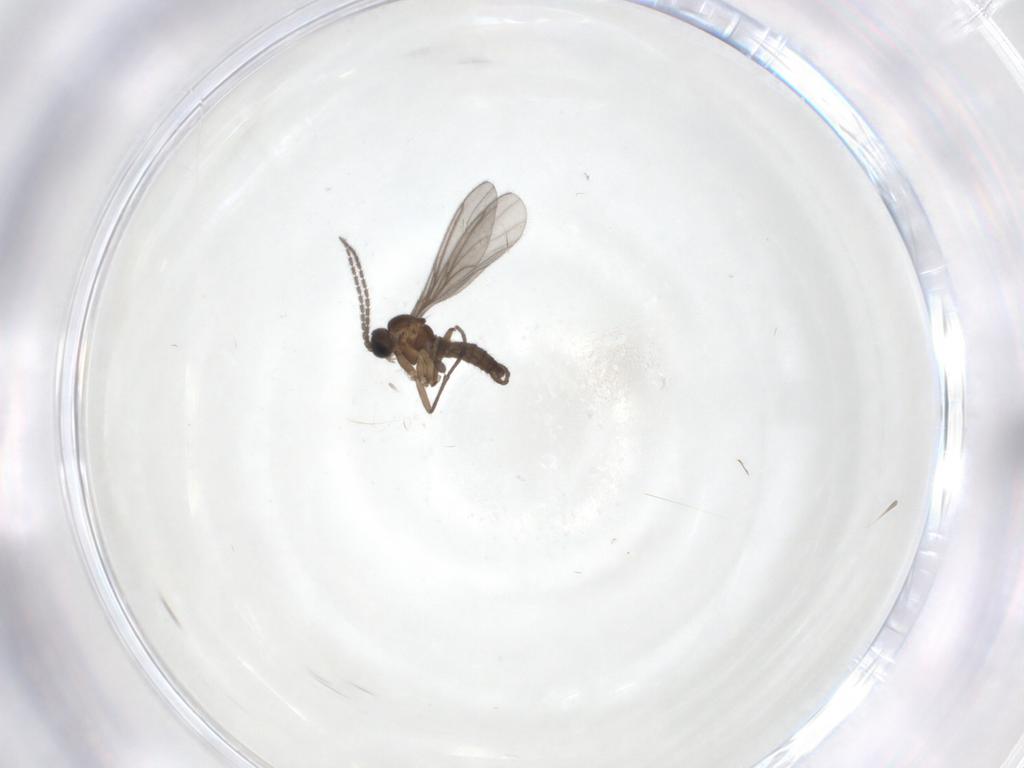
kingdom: Animalia
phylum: Arthropoda
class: Insecta
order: Diptera
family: Sciaridae
